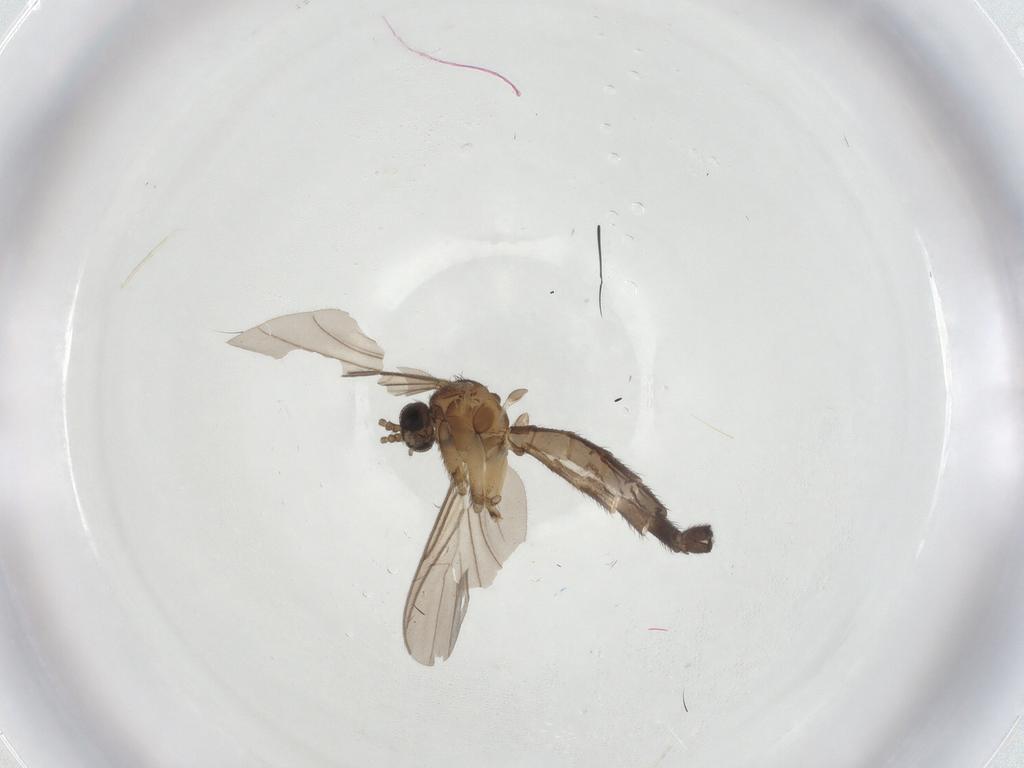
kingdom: Animalia
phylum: Arthropoda
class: Insecta
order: Diptera
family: Keroplatidae
